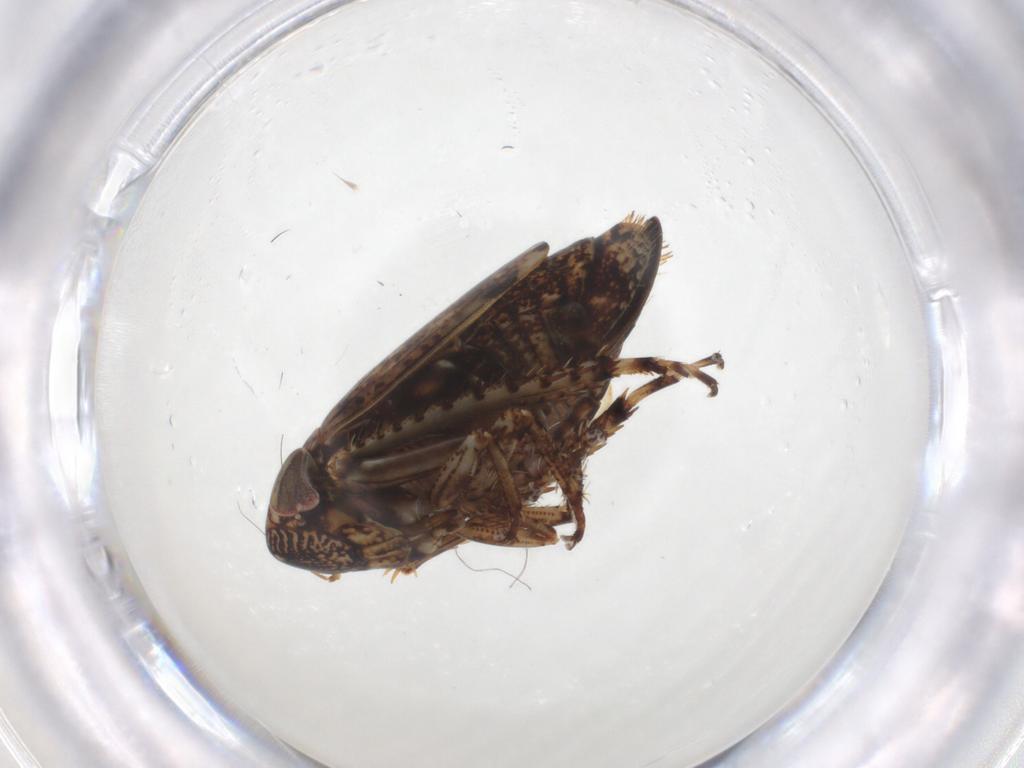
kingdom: Animalia
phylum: Arthropoda
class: Insecta
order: Hemiptera
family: Cicadellidae
